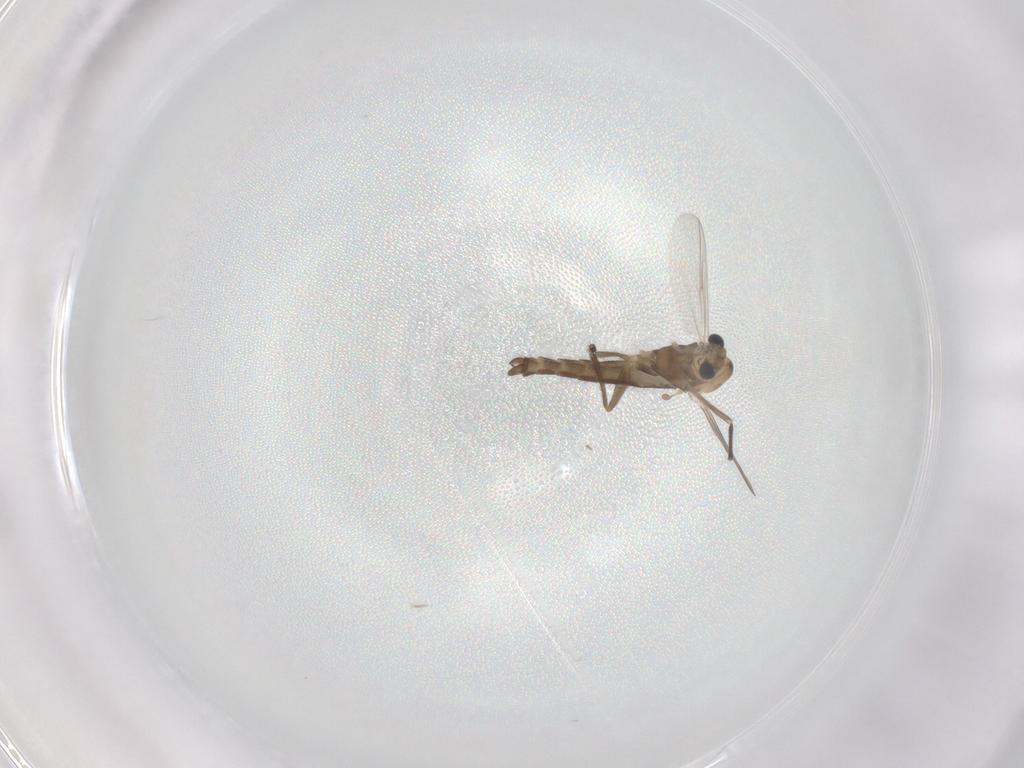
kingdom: Animalia
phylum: Arthropoda
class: Insecta
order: Diptera
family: Chironomidae
